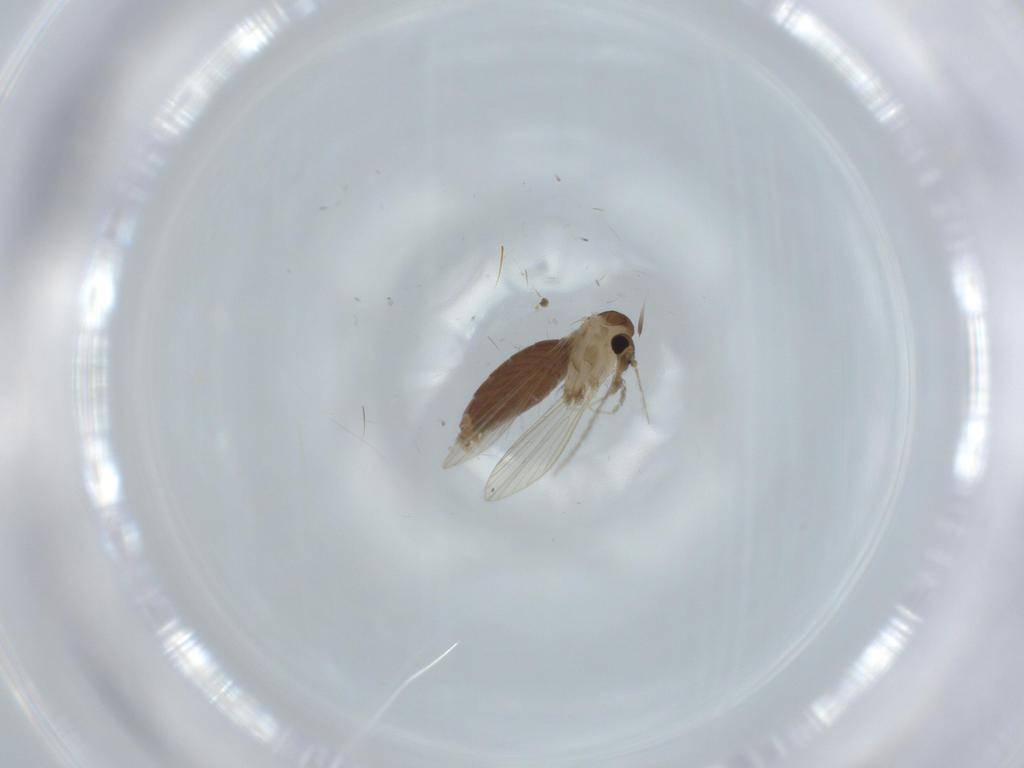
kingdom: Animalia
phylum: Arthropoda
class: Insecta
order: Diptera
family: Psychodidae
